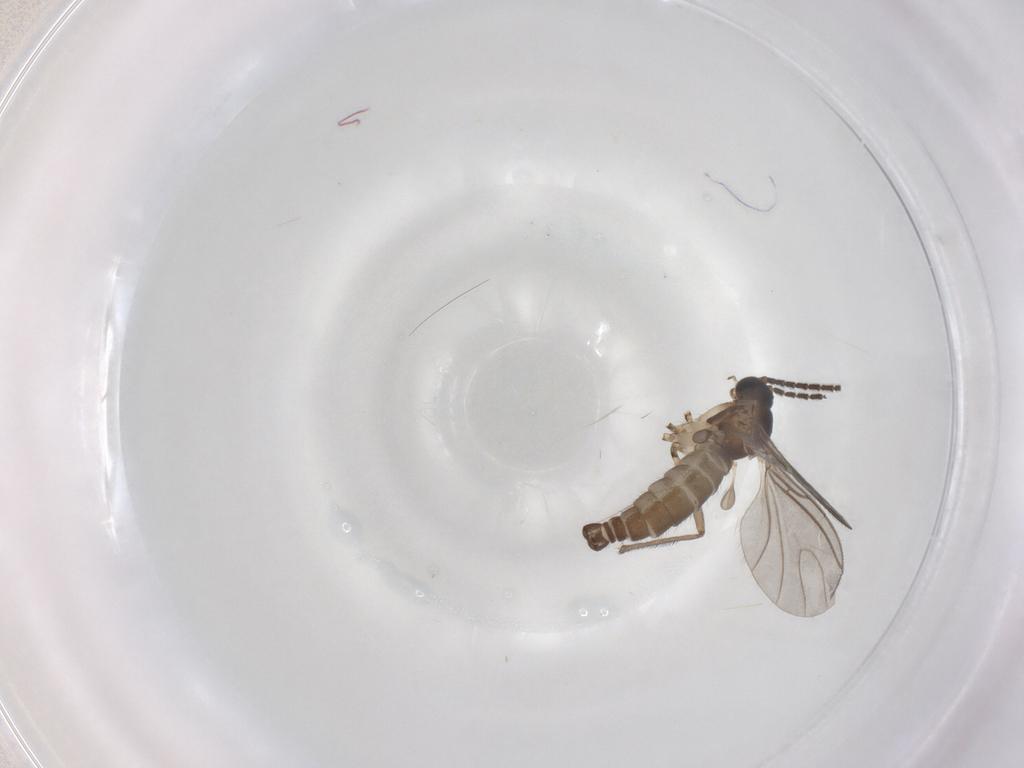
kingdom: Animalia
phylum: Arthropoda
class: Insecta
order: Diptera
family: Sciaridae
